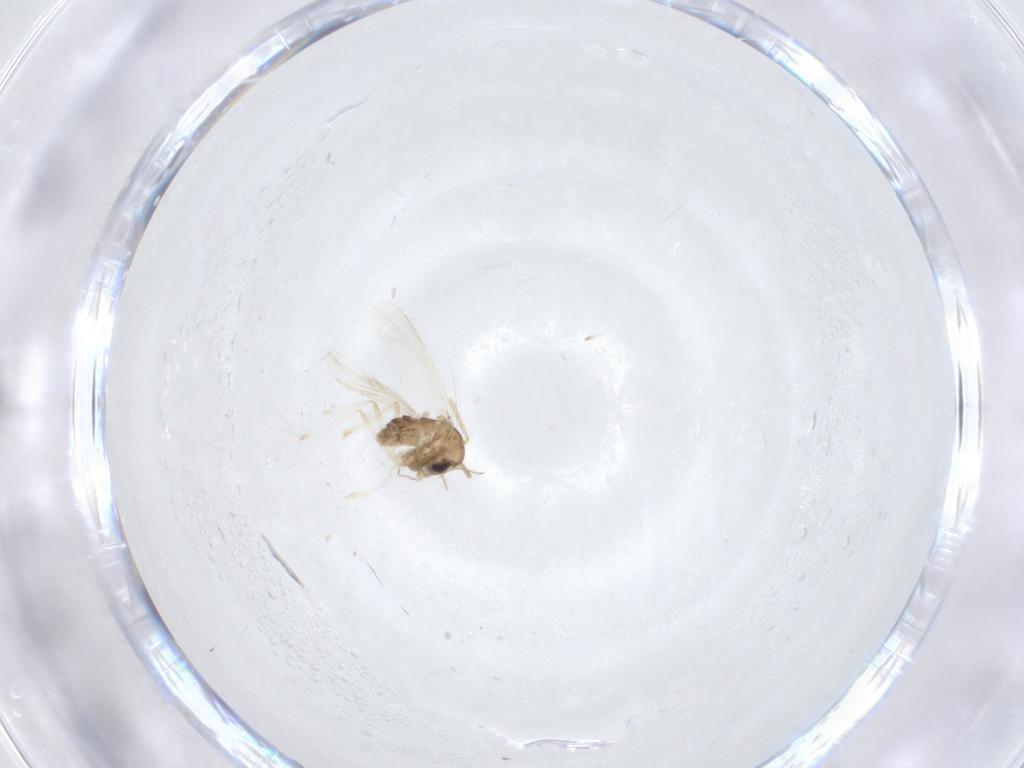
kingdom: Animalia
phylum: Arthropoda
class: Insecta
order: Diptera
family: Chironomidae
